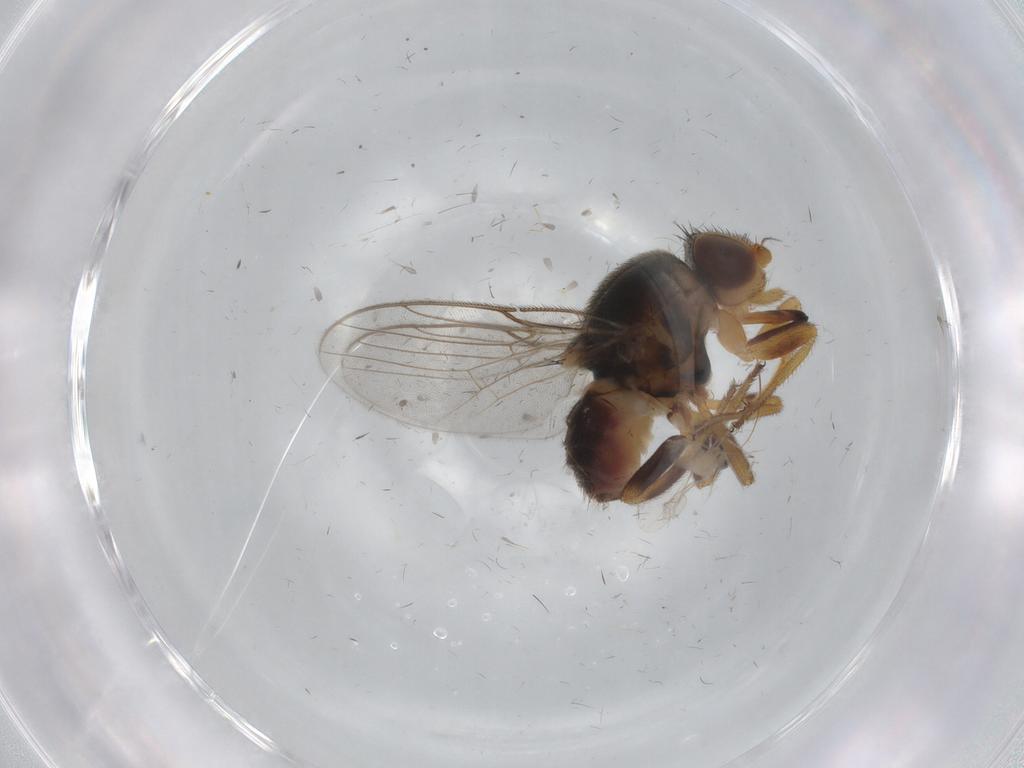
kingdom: Animalia
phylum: Arthropoda
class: Insecta
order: Diptera
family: Chloropidae
